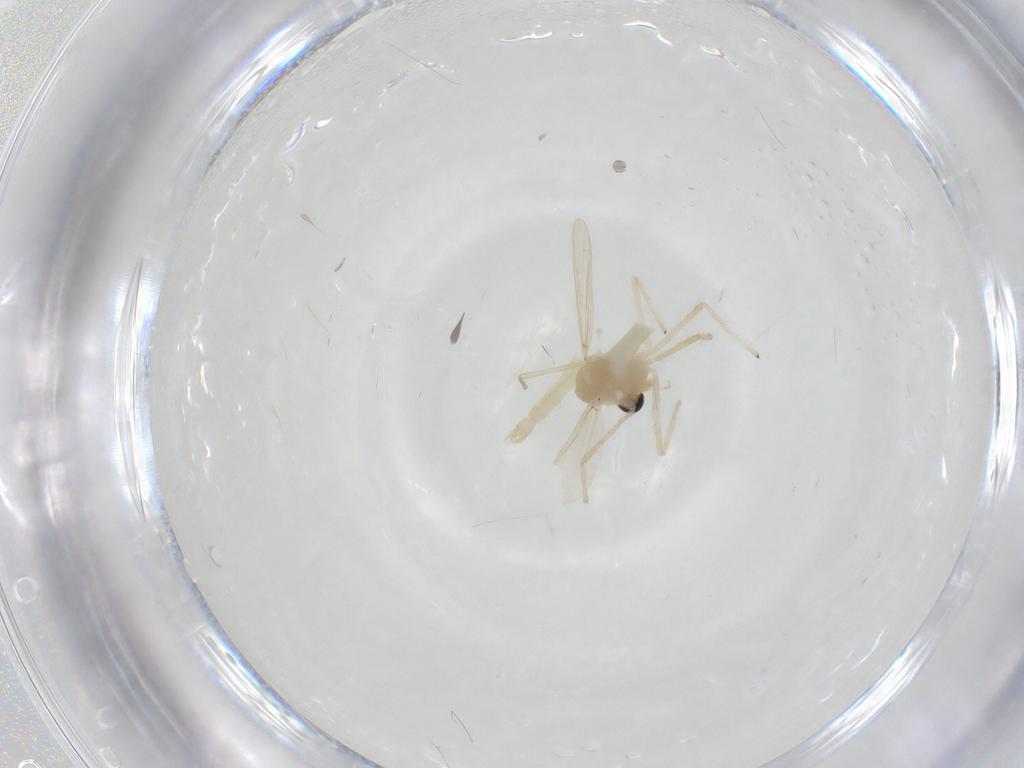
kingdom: Animalia
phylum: Arthropoda
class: Insecta
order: Diptera
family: Chironomidae
